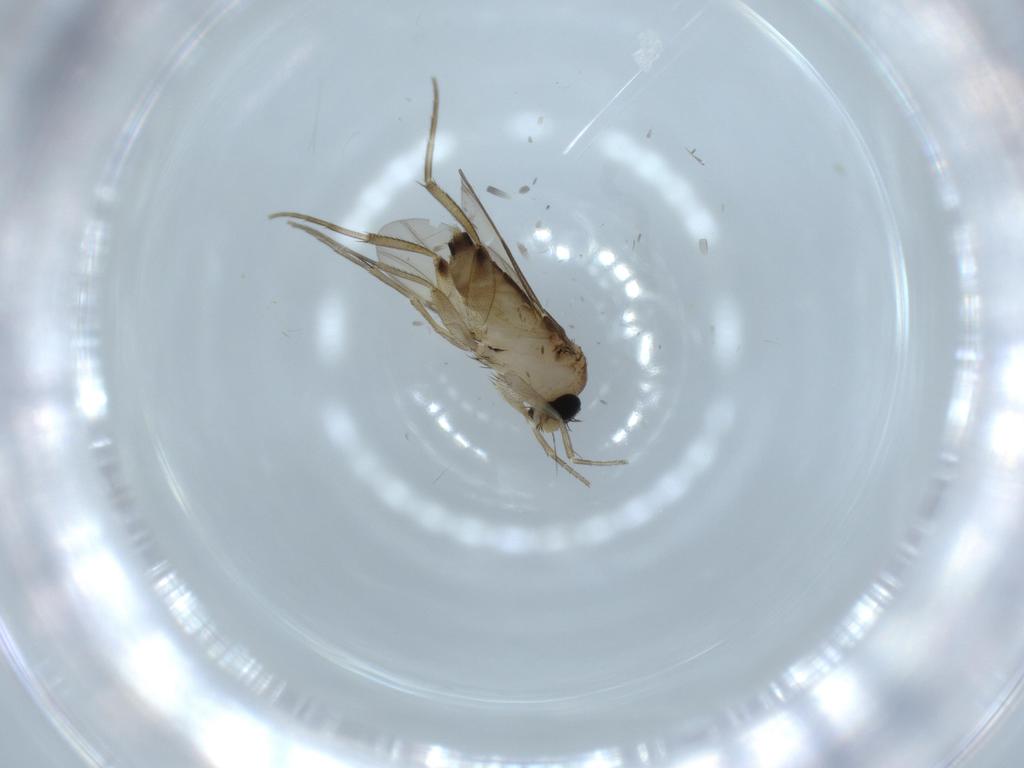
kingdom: Animalia
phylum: Arthropoda
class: Insecta
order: Diptera
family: Phoridae
